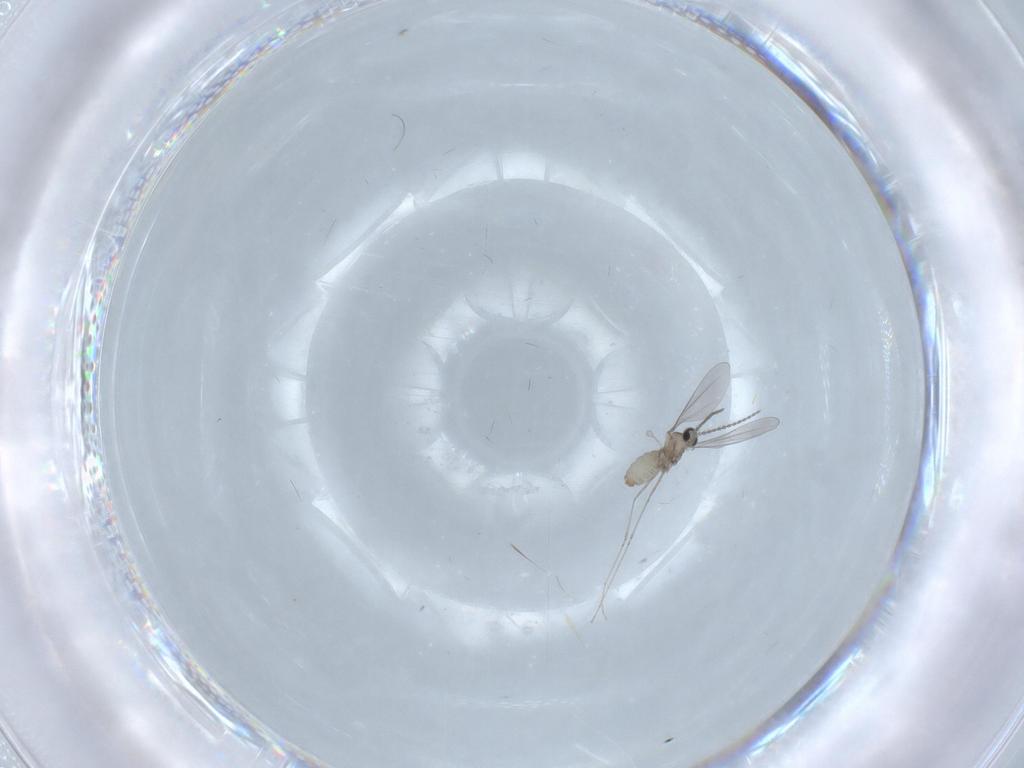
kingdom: Animalia
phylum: Arthropoda
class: Insecta
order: Diptera
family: Cecidomyiidae
